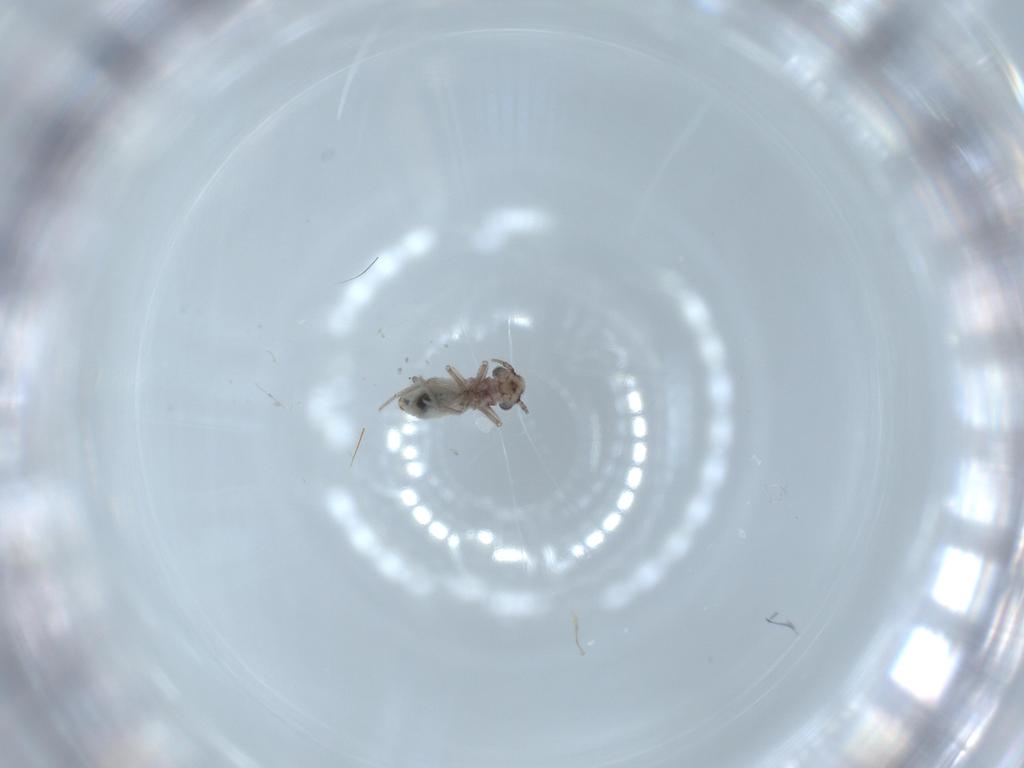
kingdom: Animalia
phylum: Arthropoda
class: Insecta
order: Psocodea
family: Lepidopsocidae
